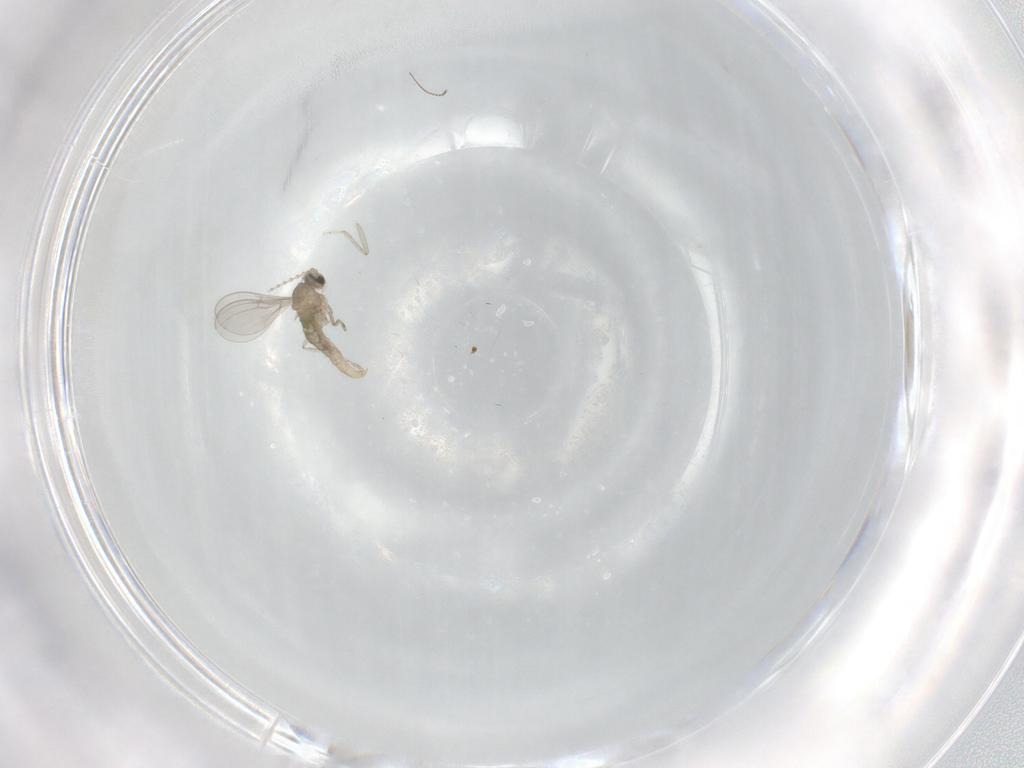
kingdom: Animalia
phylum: Arthropoda
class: Insecta
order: Diptera
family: Cecidomyiidae
